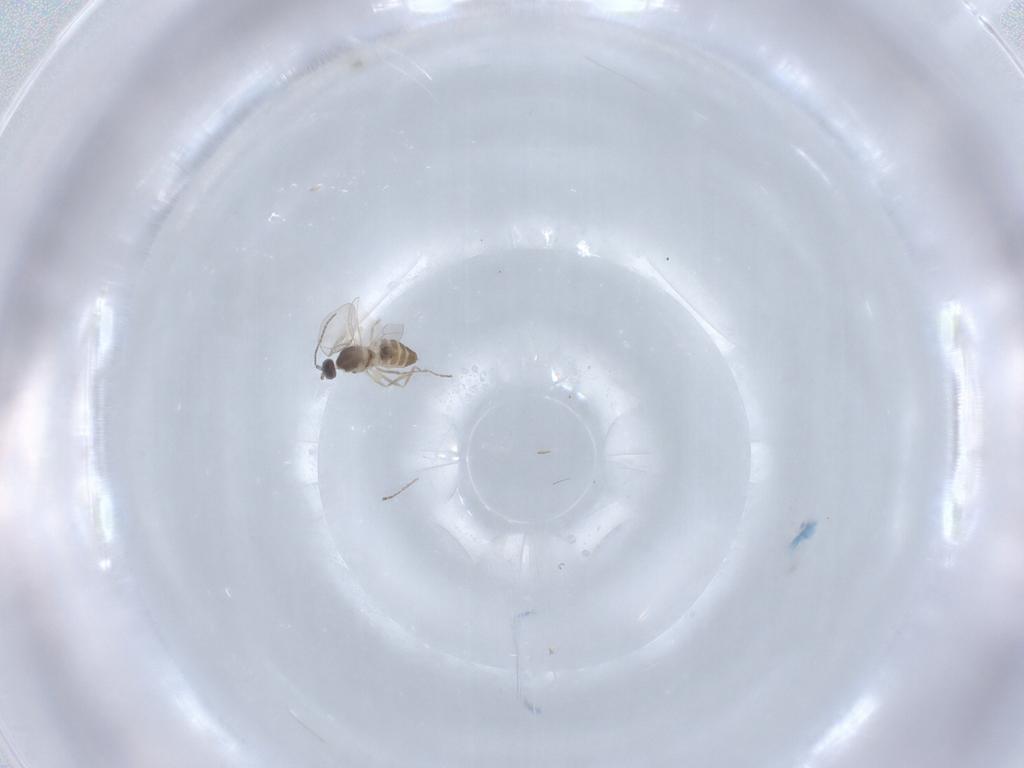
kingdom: Animalia
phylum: Arthropoda
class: Insecta
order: Diptera
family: Cecidomyiidae
